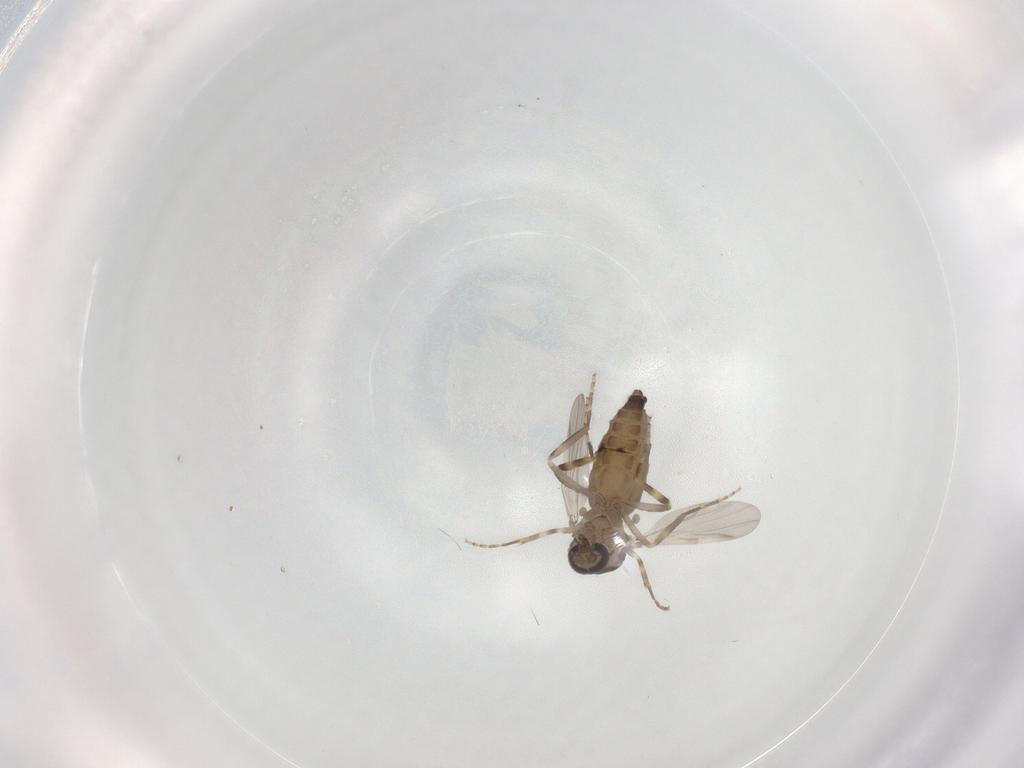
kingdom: Animalia
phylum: Arthropoda
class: Insecta
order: Diptera
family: Ceratopogonidae
